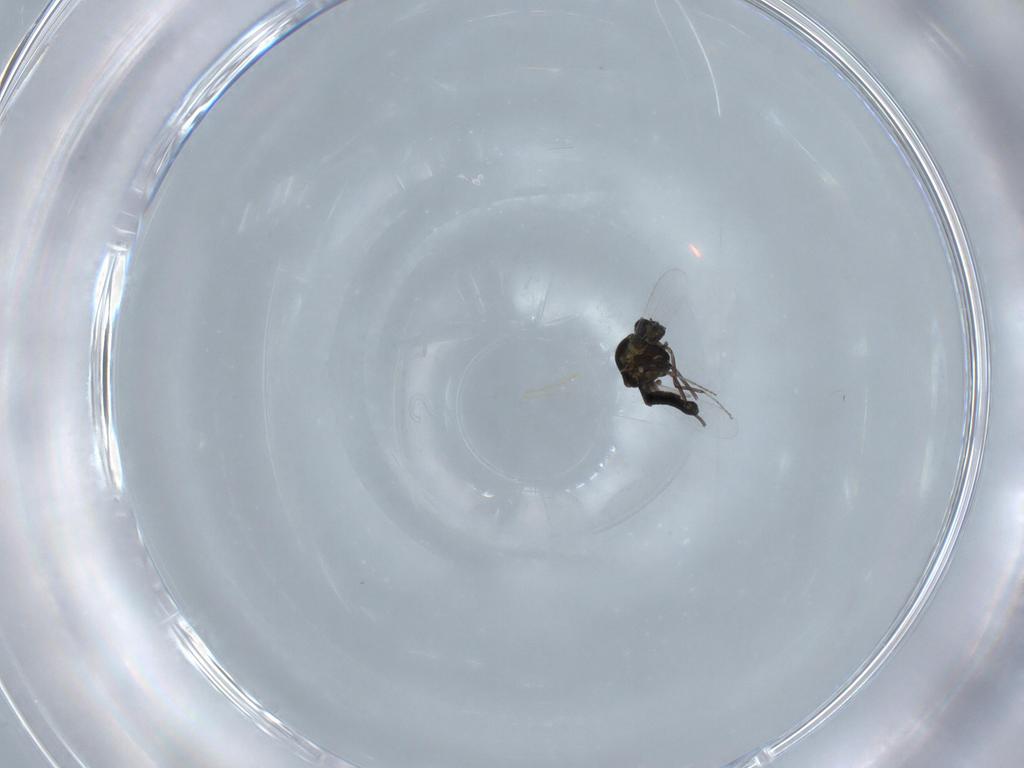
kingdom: Animalia
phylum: Arthropoda
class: Insecta
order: Diptera
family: Ceratopogonidae
